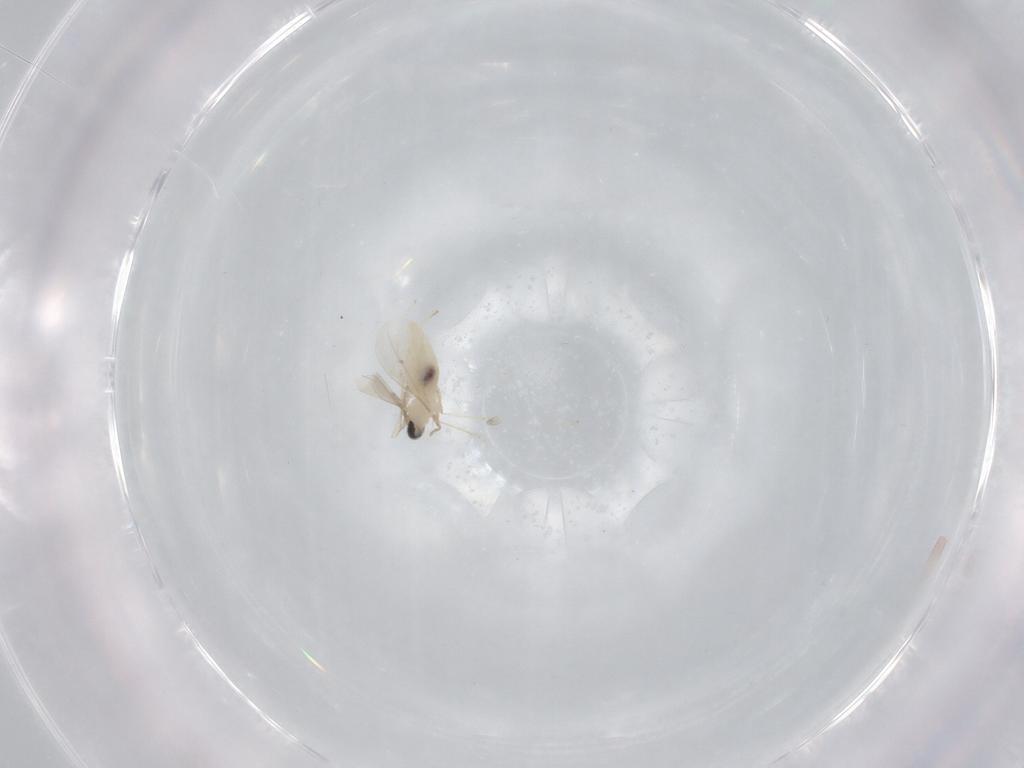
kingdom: Animalia
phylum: Arthropoda
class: Insecta
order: Diptera
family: Cecidomyiidae
